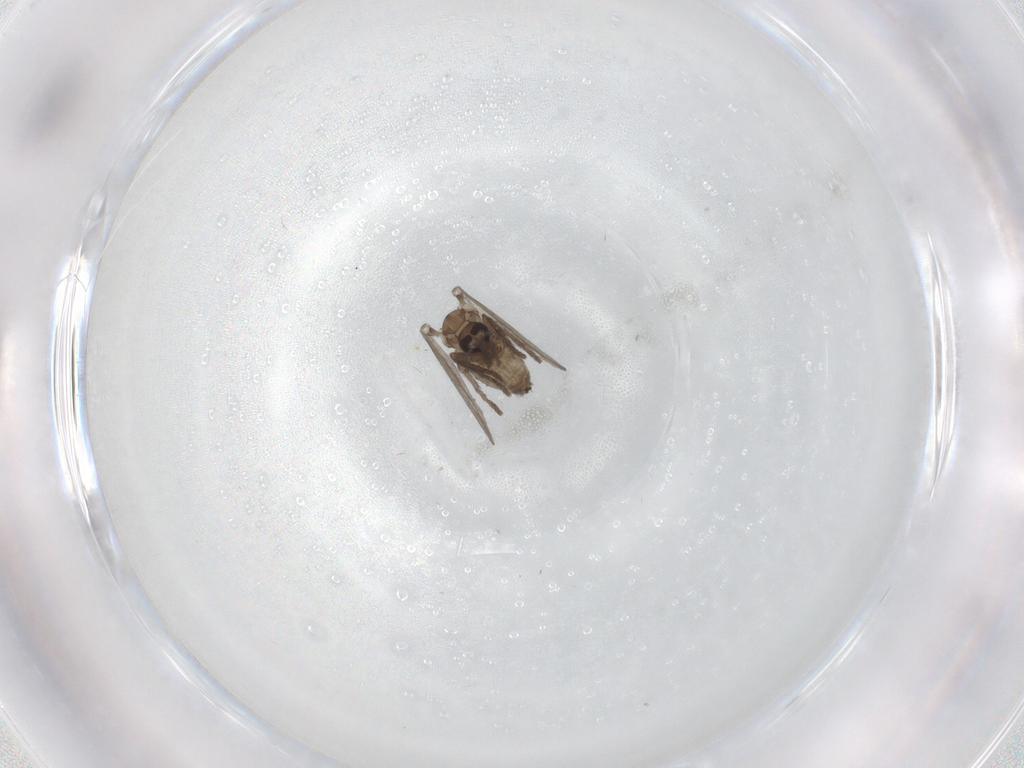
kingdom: Animalia
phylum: Arthropoda
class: Insecta
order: Diptera
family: Psychodidae
